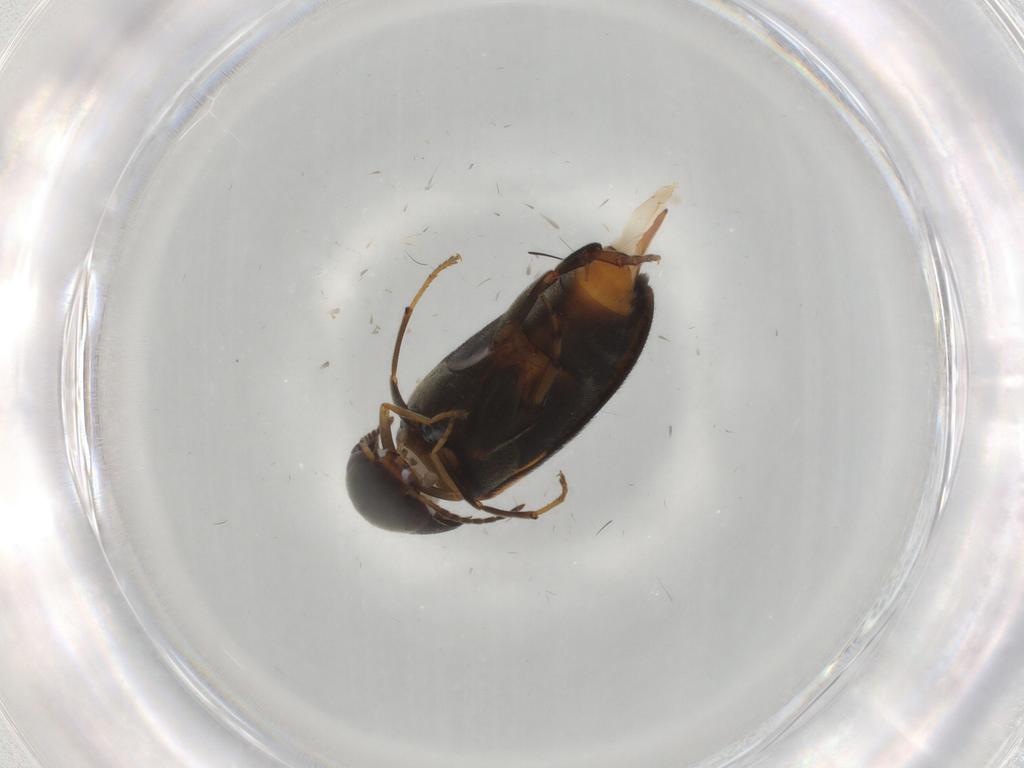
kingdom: Animalia
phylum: Arthropoda
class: Insecta
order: Coleoptera
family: Mordellidae
